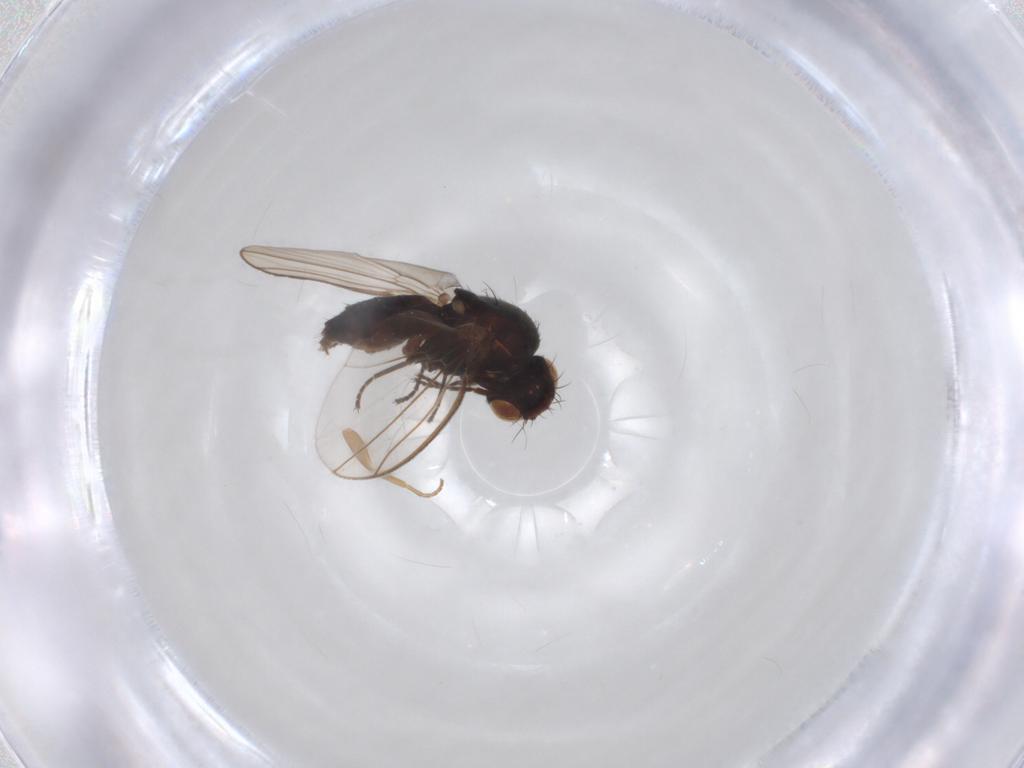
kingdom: Animalia
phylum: Arthropoda
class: Insecta
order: Diptera
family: Carnidae
